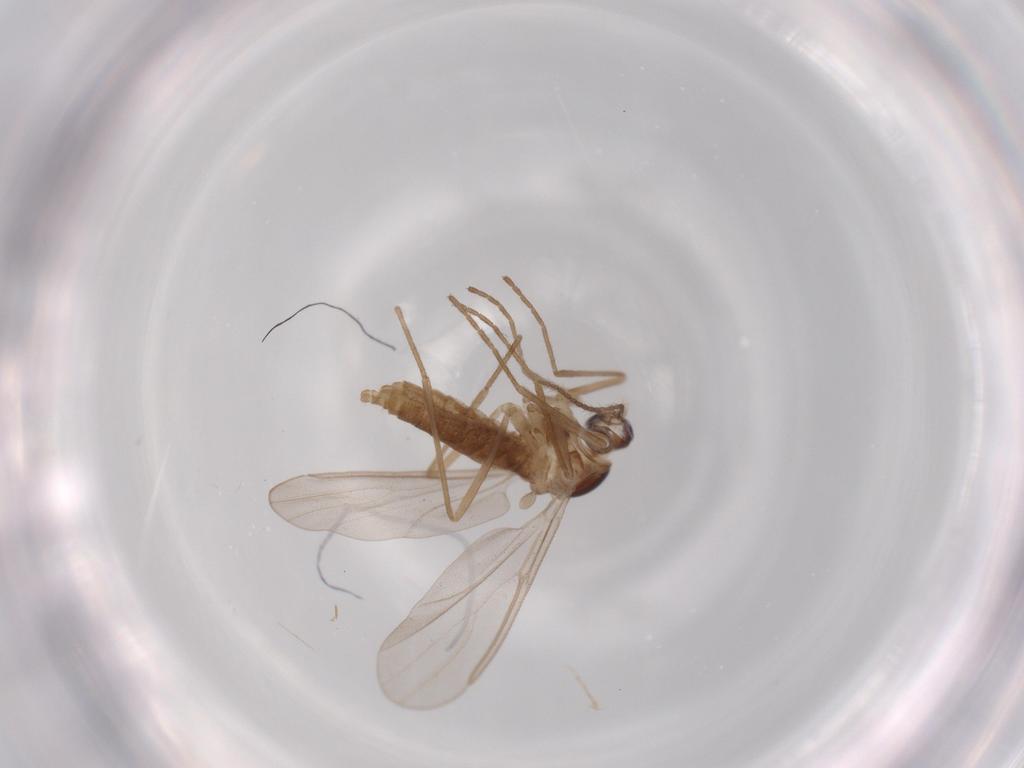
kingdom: Animalia
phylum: Arthropoda
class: Insecta
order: Diptera
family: Cecidomyiidae
